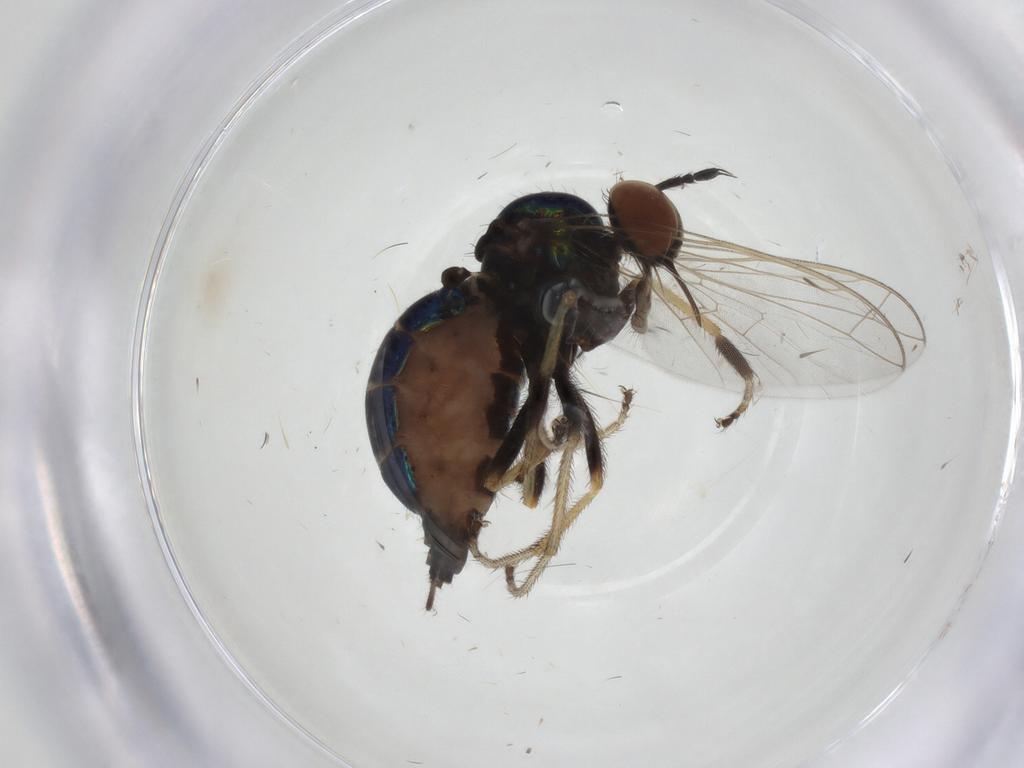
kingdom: Animalia
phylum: Arthropoda
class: Insecta
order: Diptera
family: Empididae
